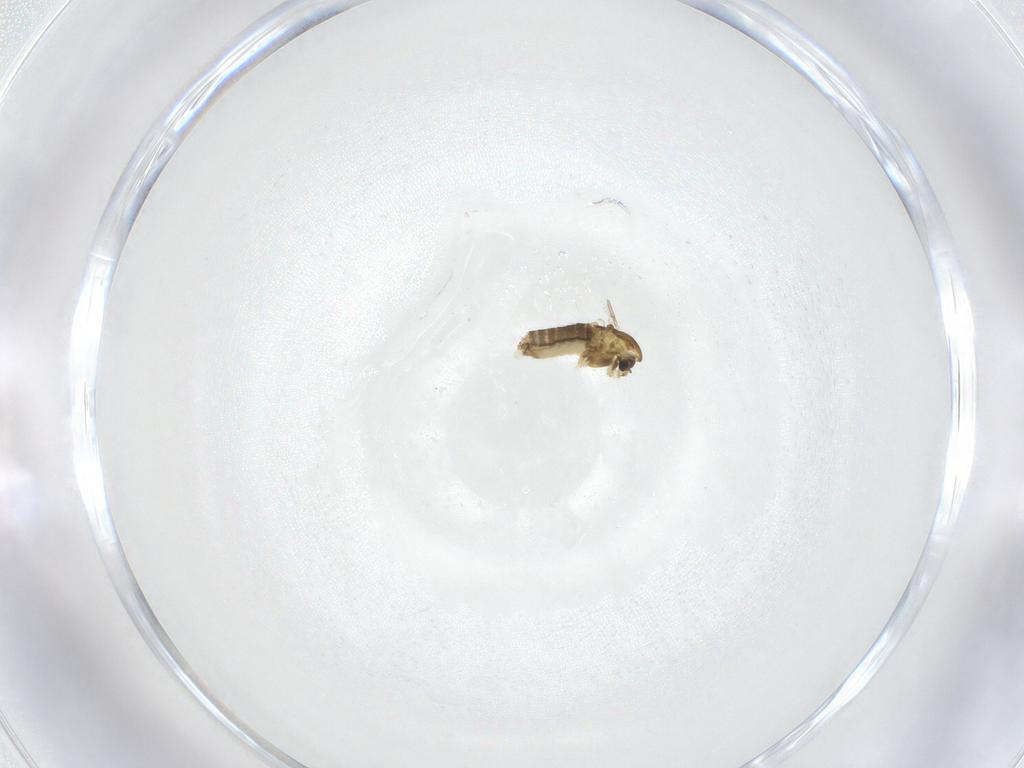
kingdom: Animalia
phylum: Arthropoda
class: Insecta
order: Diptera
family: Chironomidae
